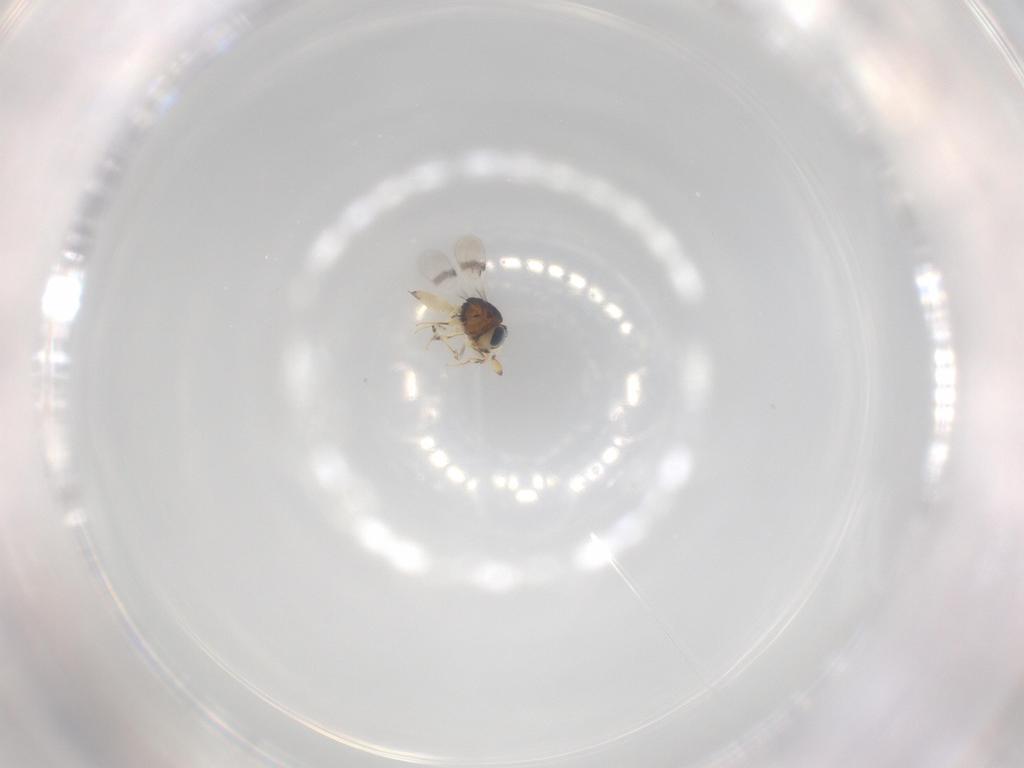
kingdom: Animalia
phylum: Arthropoda
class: Insecta
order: Hymenoptera
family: Scelionidae
